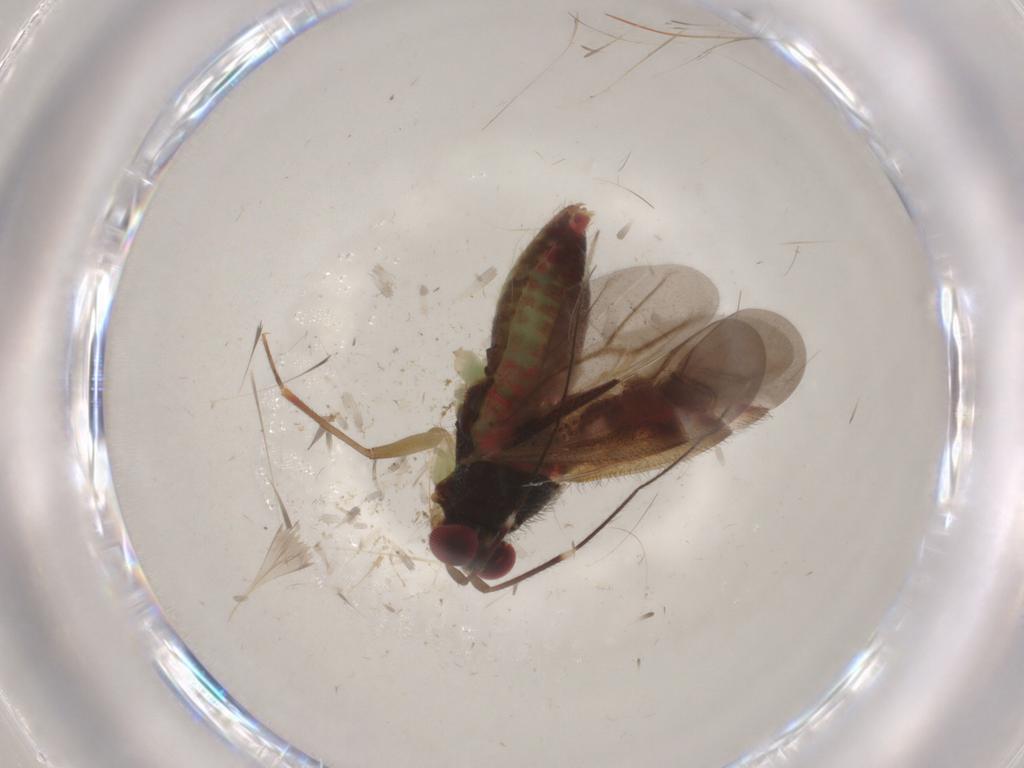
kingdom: Animalia
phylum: Arthropoda
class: Insecta
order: Hemiptera
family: Miridae
